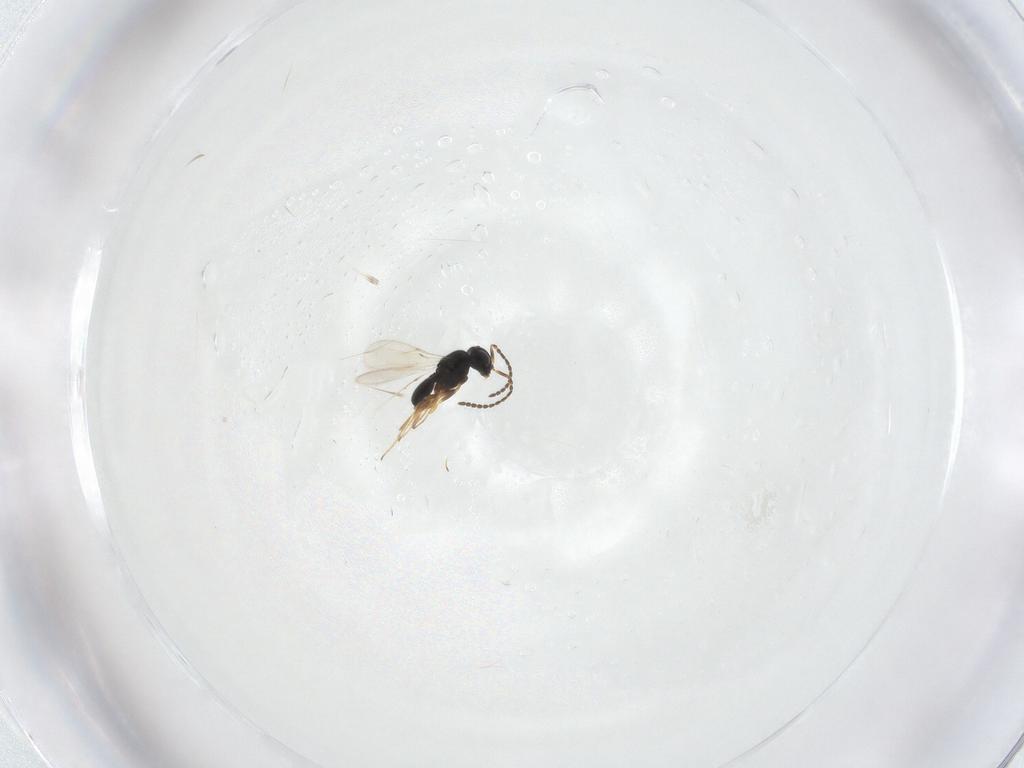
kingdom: Animalia
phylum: Arthropoda
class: Insecta
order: Hymenoptera
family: Scelionidae
